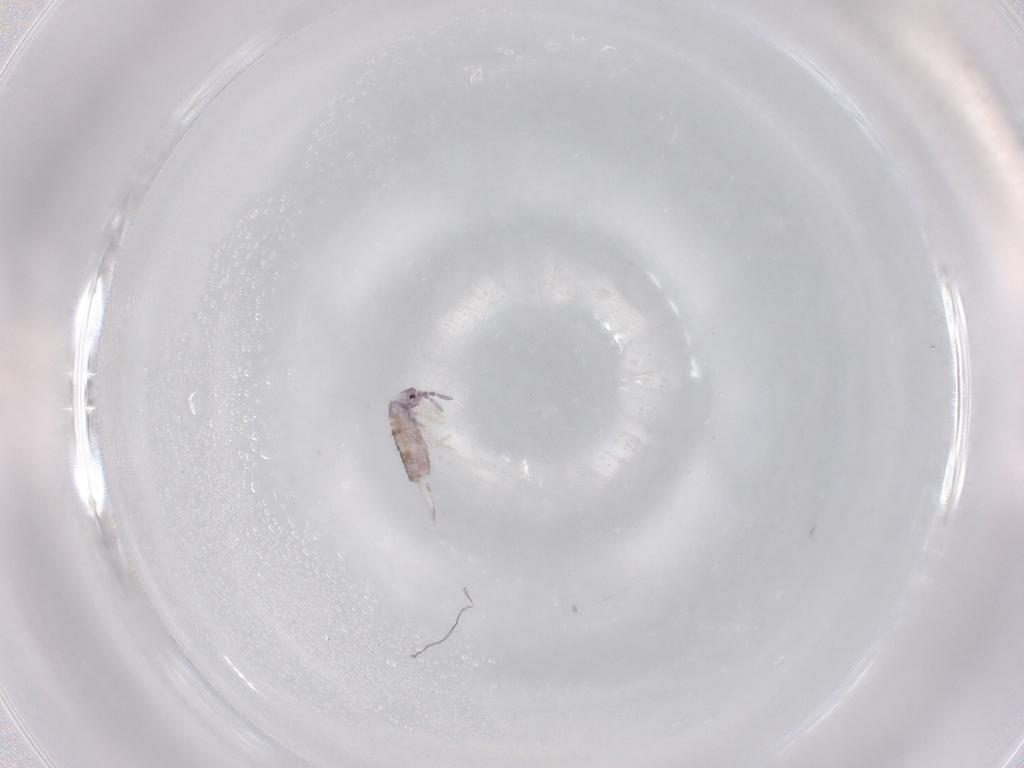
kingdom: Animalia
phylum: Arthropoda
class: Collembola
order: Entomobryomorpha
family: Entomobryidae
